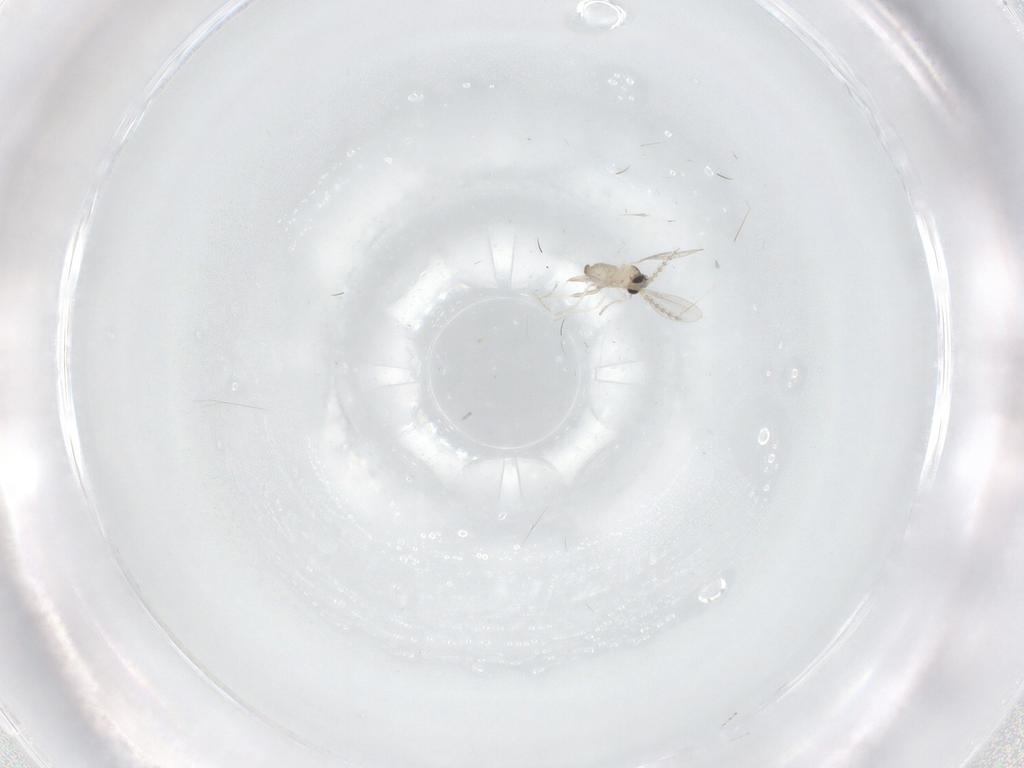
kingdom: Animalia
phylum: Arthropoda
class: Insecta
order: Diptera
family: Cecidomyiidae
